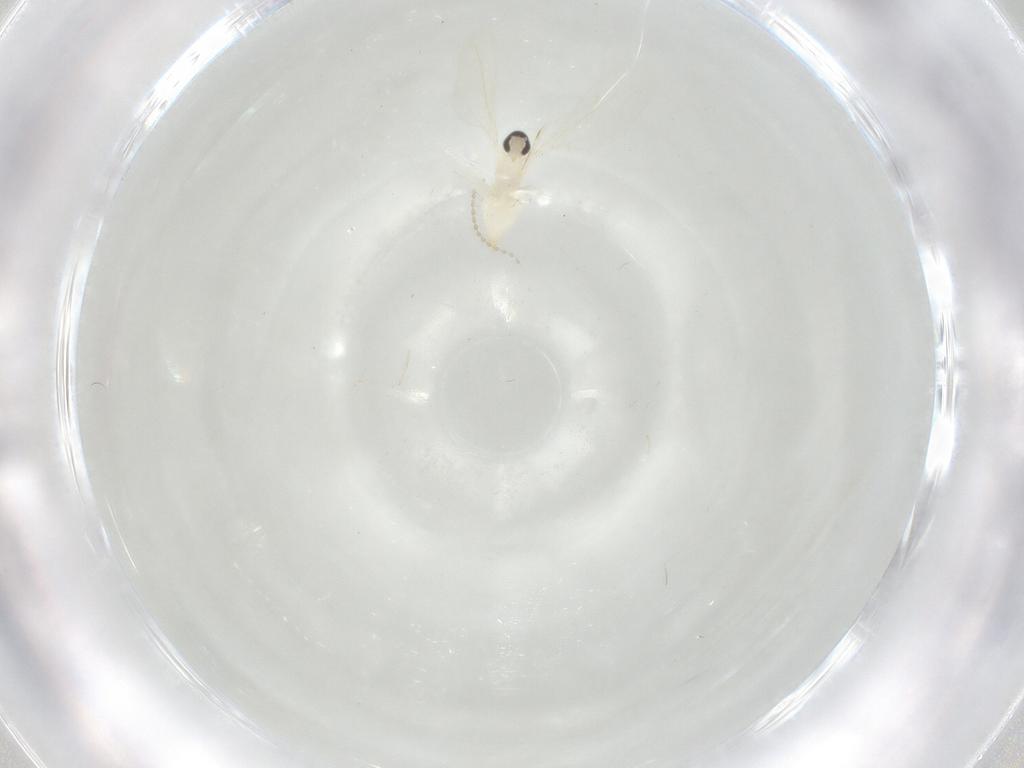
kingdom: Animalia
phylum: Arthropoda
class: Insecta
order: Diptera
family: Cecidomyiidae
